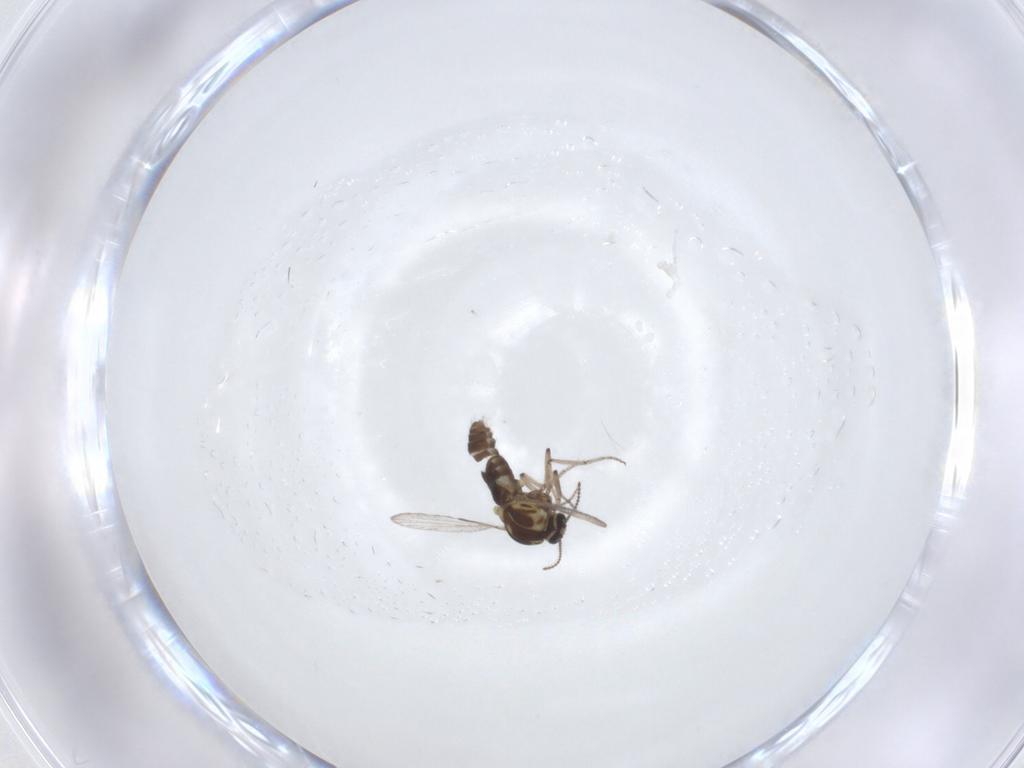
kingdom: Animalia
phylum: Arthropoda
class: Insecta
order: Diptera
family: Ceratopogonidae
